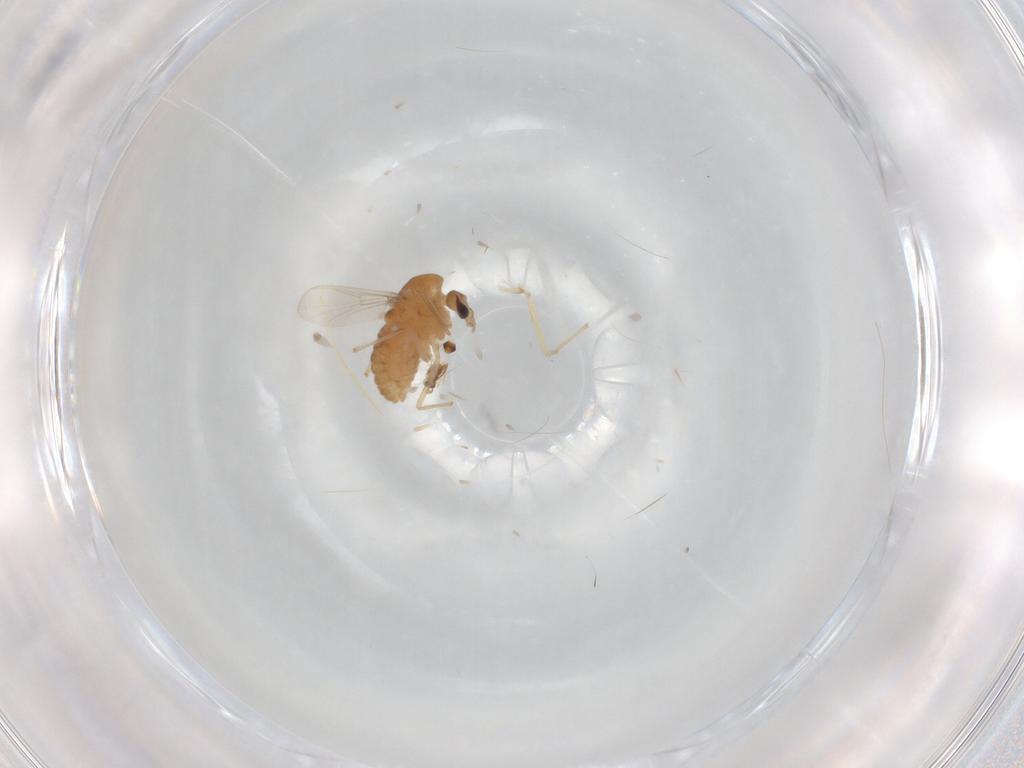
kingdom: Animalia
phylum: Arthropoda
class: Insecta
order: Diptera
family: Chironomidae
